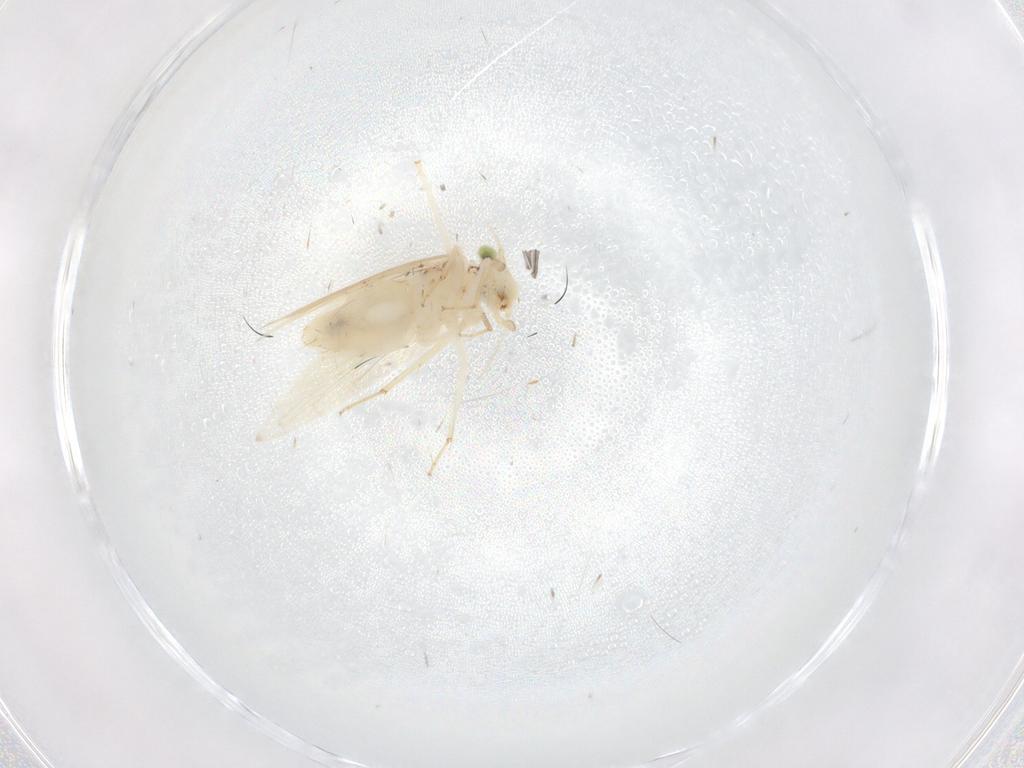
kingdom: Animalia
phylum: Arthropoda
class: Insecta
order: Psocodea
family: Lepidopsocidae
